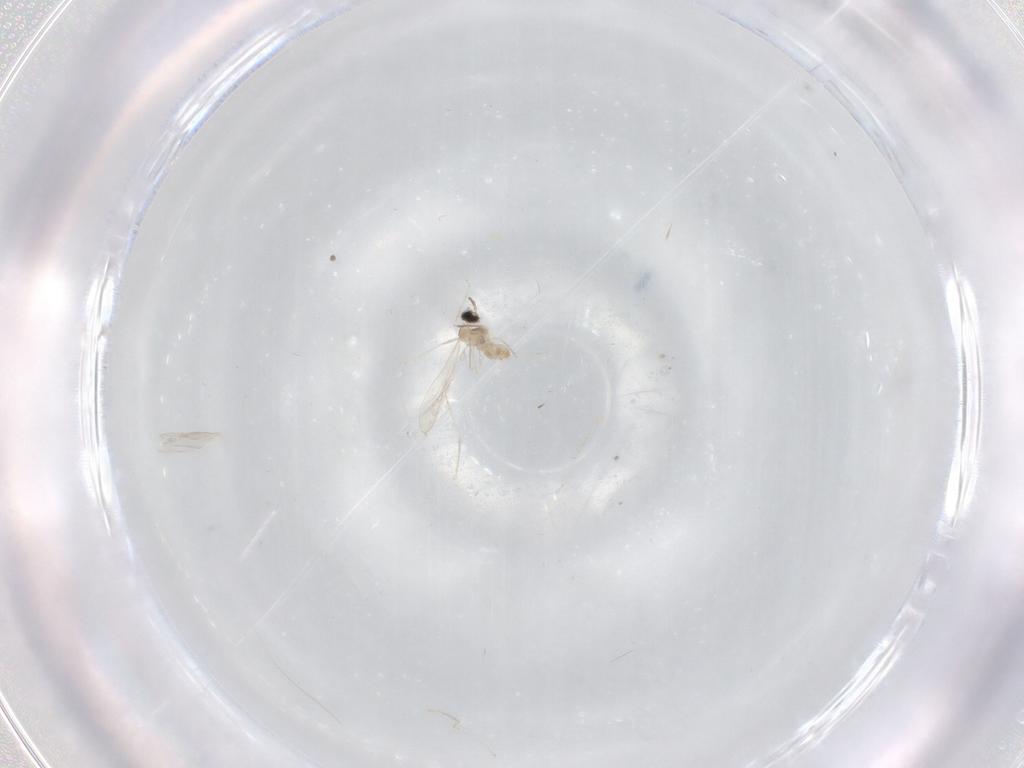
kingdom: Animalia
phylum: Arthropoda
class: Insecta
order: Diptera
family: Cecidomyiidae
